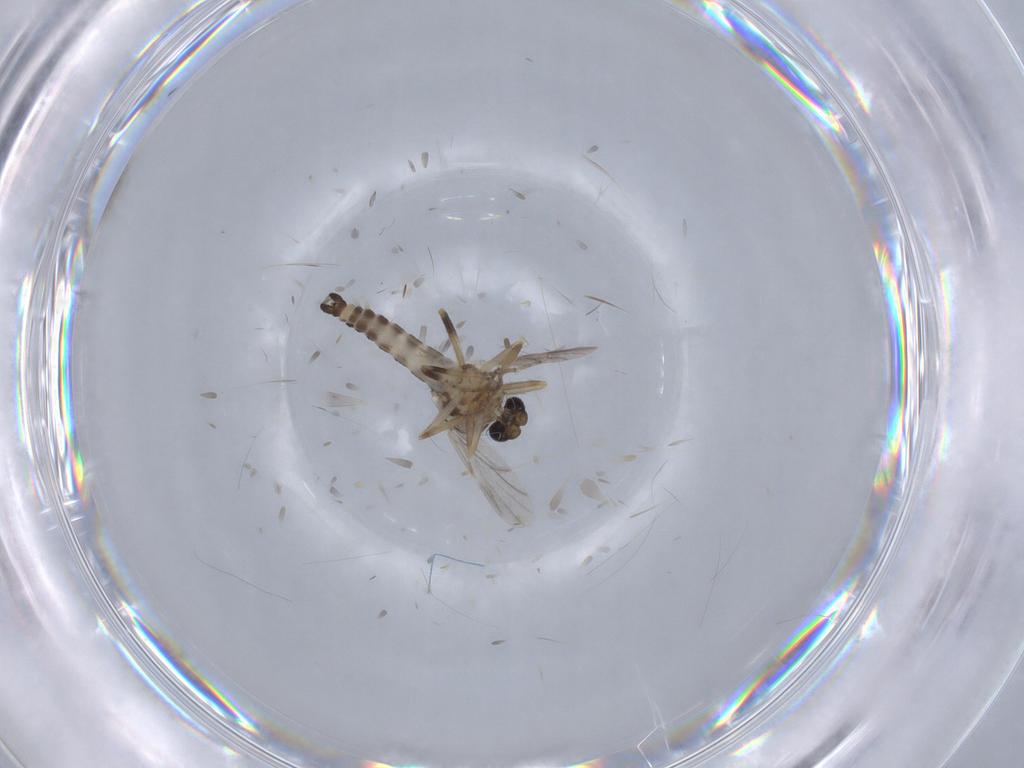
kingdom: Animalia
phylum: Arthropoda
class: Insecta
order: Diptera
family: Ceratopogonidae
